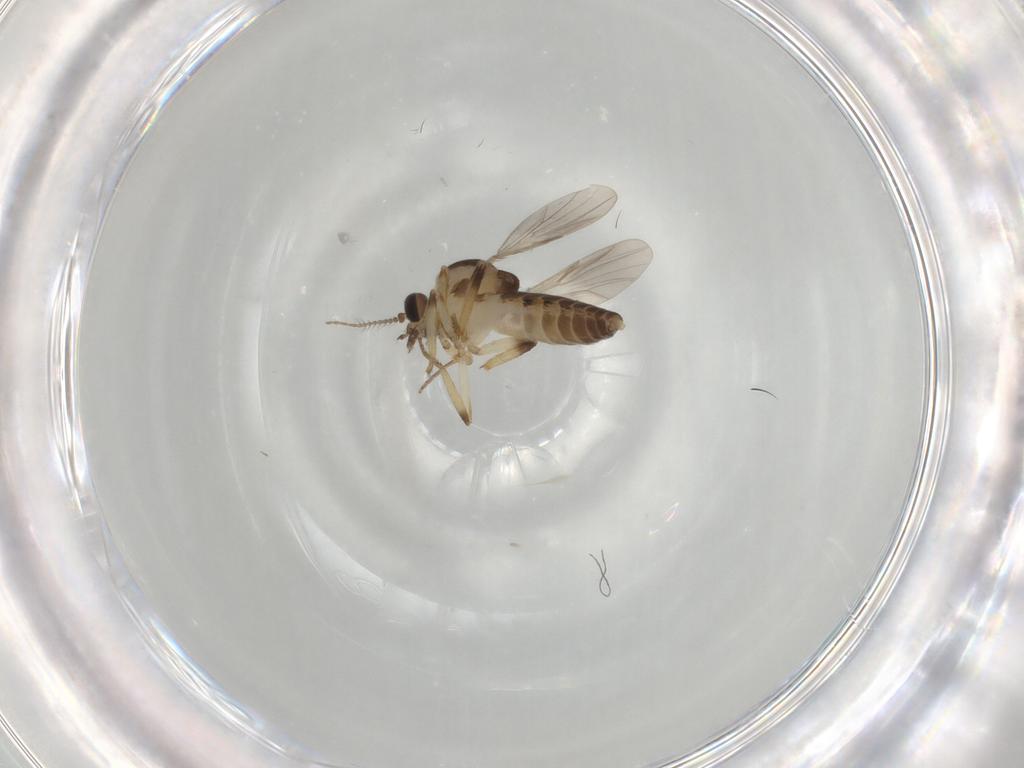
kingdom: Animalia
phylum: Arthropoda
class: Insecta
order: Diptera
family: Ceratopogonidae
